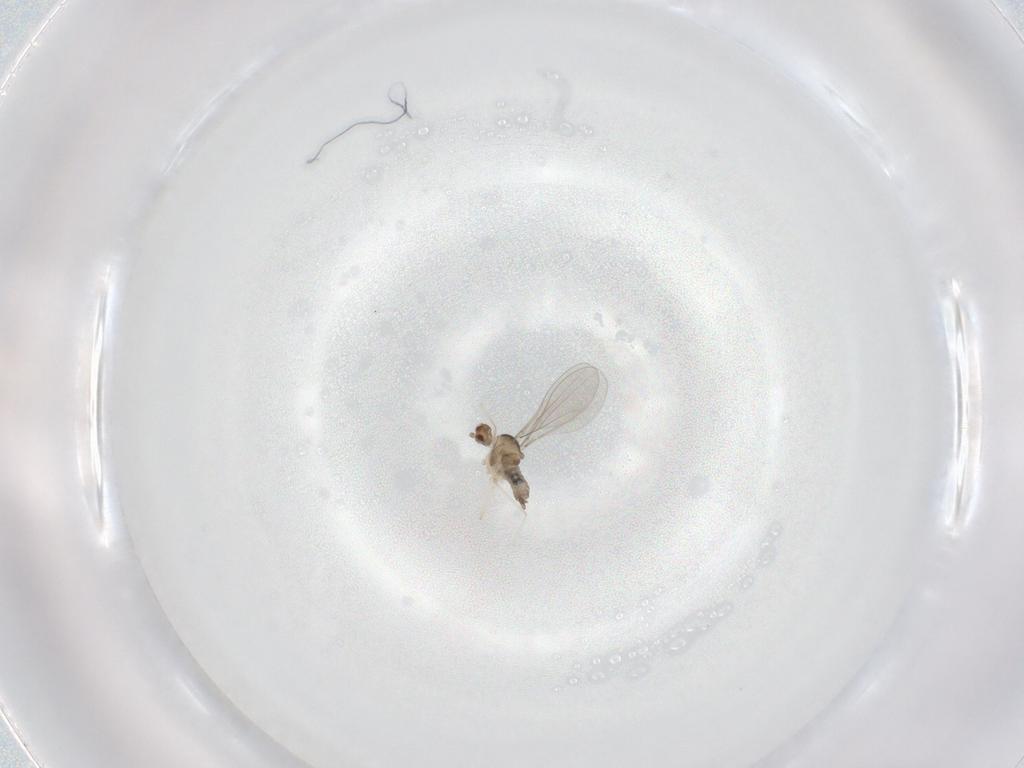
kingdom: Animalia
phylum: Arthropoda
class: Insecta
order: Diptera
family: Cecidomyiidae
